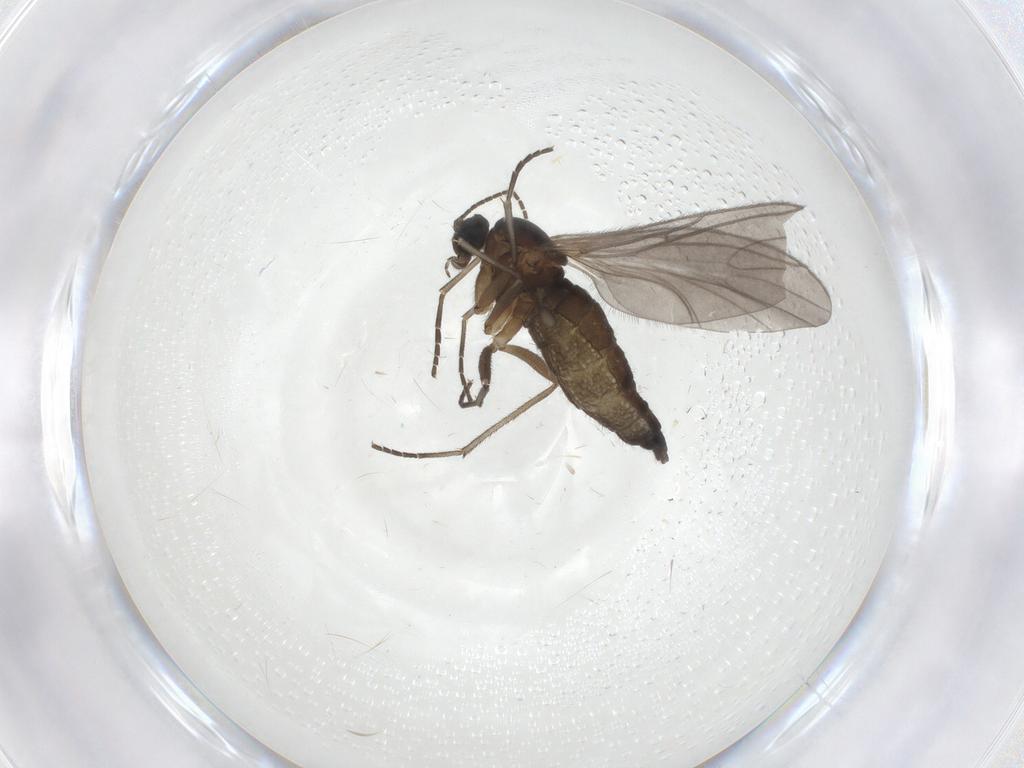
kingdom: Animalia
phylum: Arthropoda
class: Insecta
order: Diptera
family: Sciaridae
